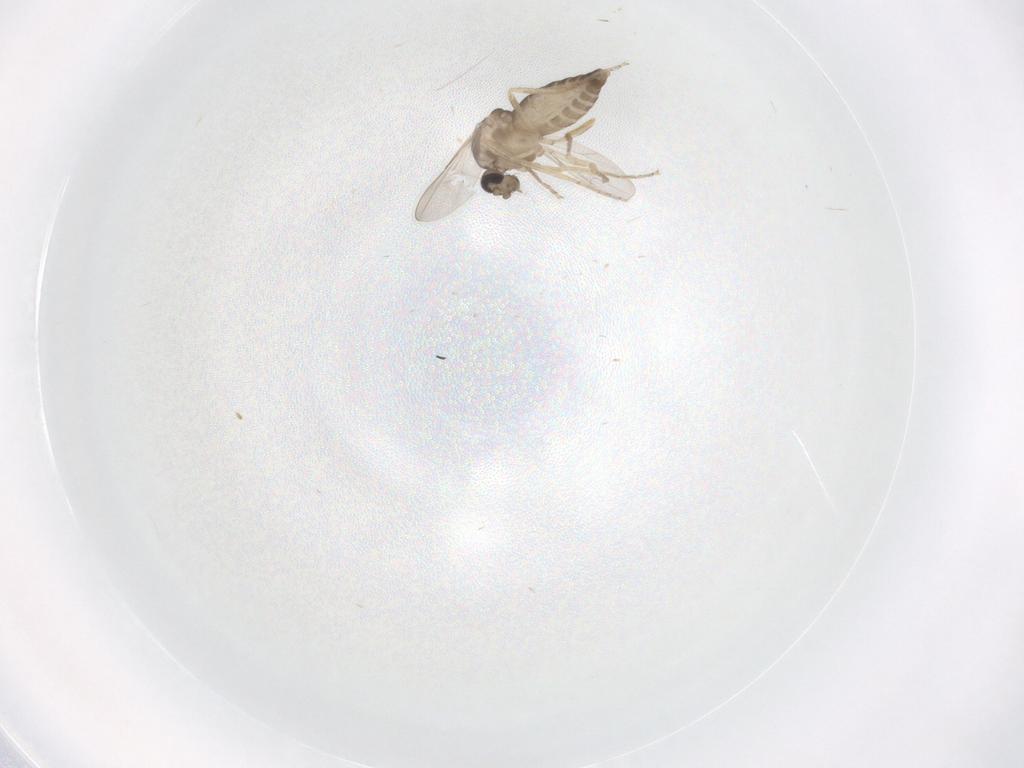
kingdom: Animalia
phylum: Arthropoda
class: Insecta
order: Diptera
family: Ceratopogonidae
